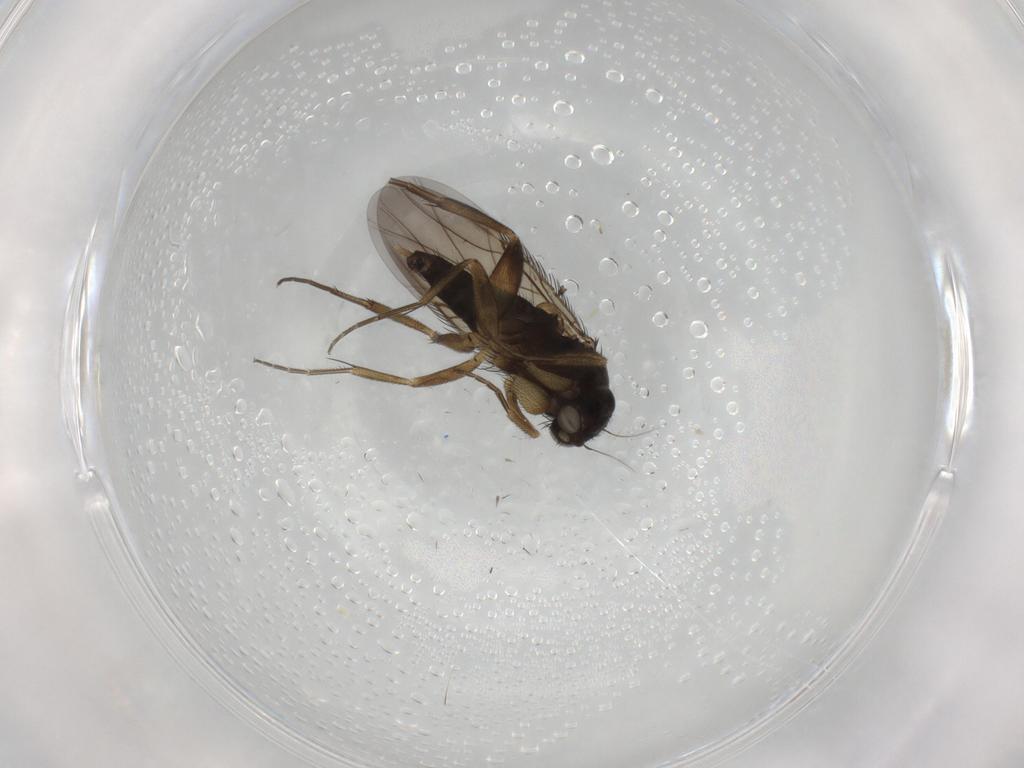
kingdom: Animalia
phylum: Arthropoda
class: Insecta
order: Diptera
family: Phoridae
